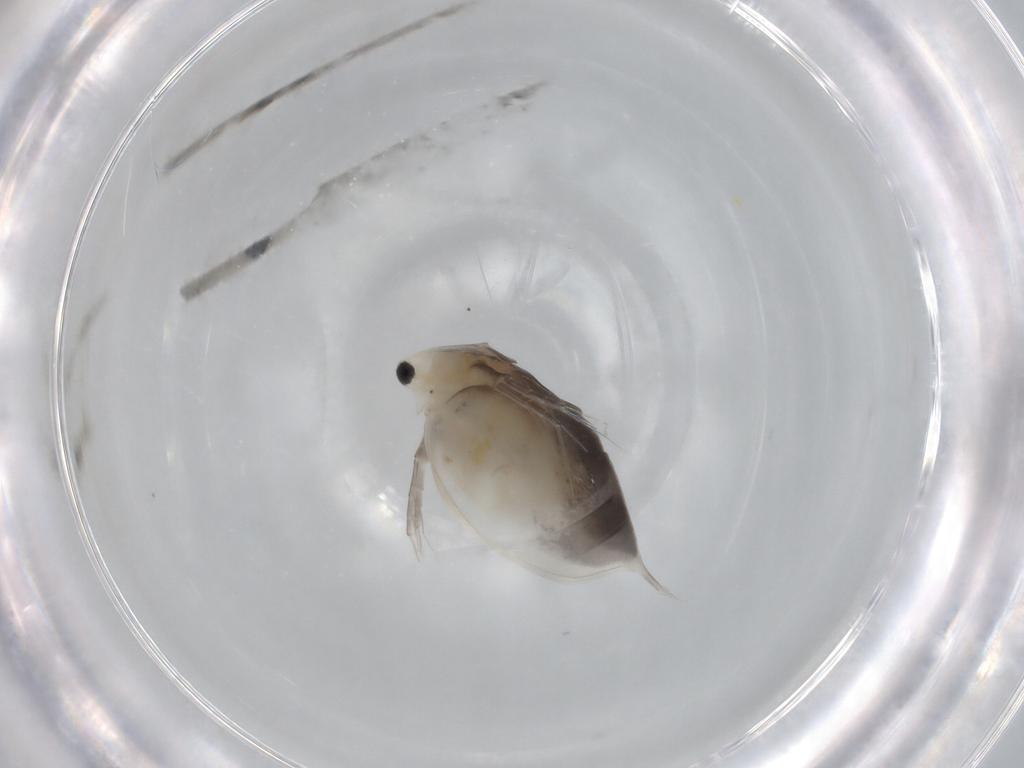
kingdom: Animalia
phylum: Arthropoda
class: Branchiopoda
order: Diplostraca
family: Daphniidae
